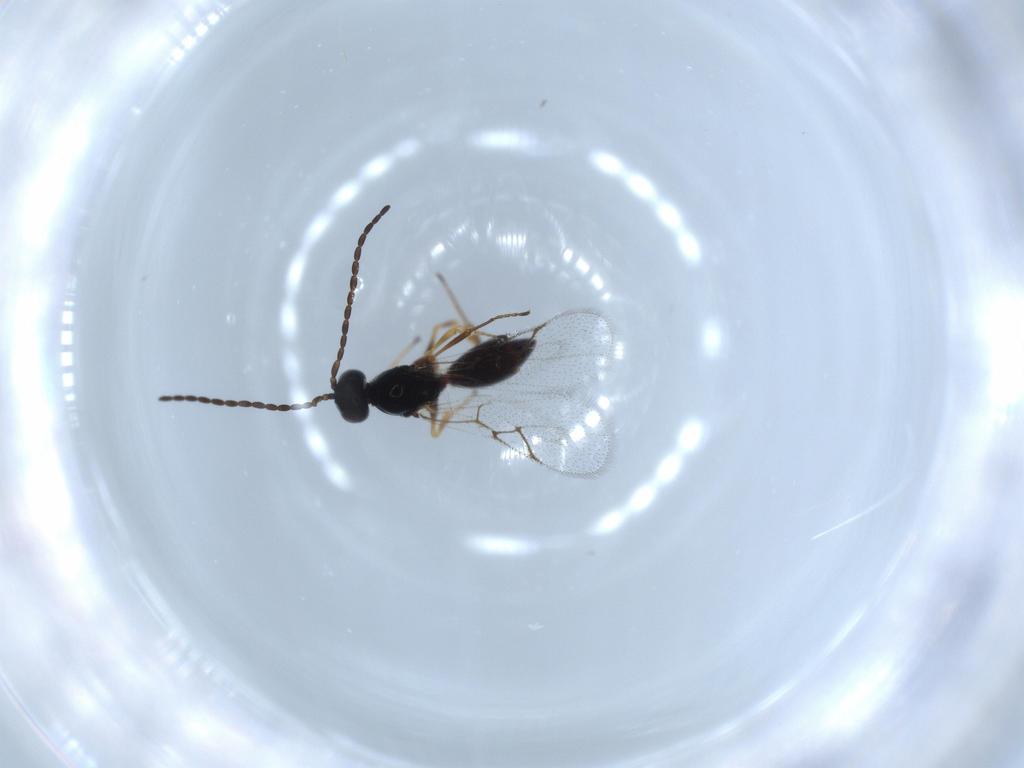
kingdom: Animalia
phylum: Arthropoda
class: Insecta
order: Hymenoptera
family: Figitidae
